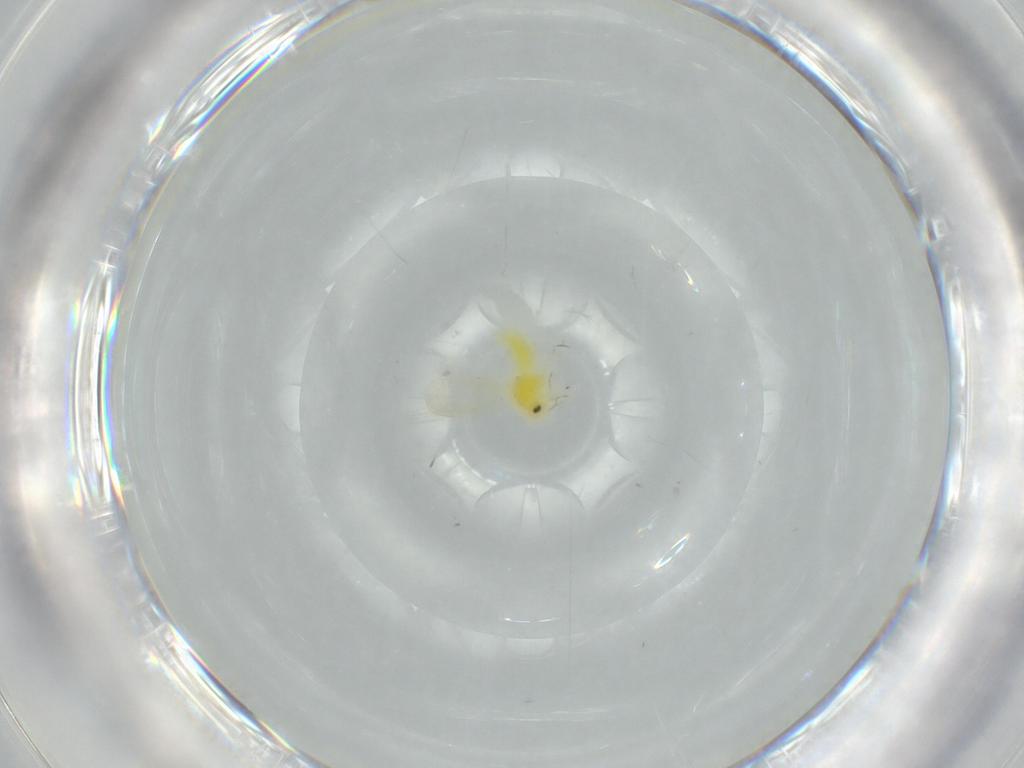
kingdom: Animalia
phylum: Arthropoda
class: Insecta
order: Hemiptera
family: Aleyrodidae
